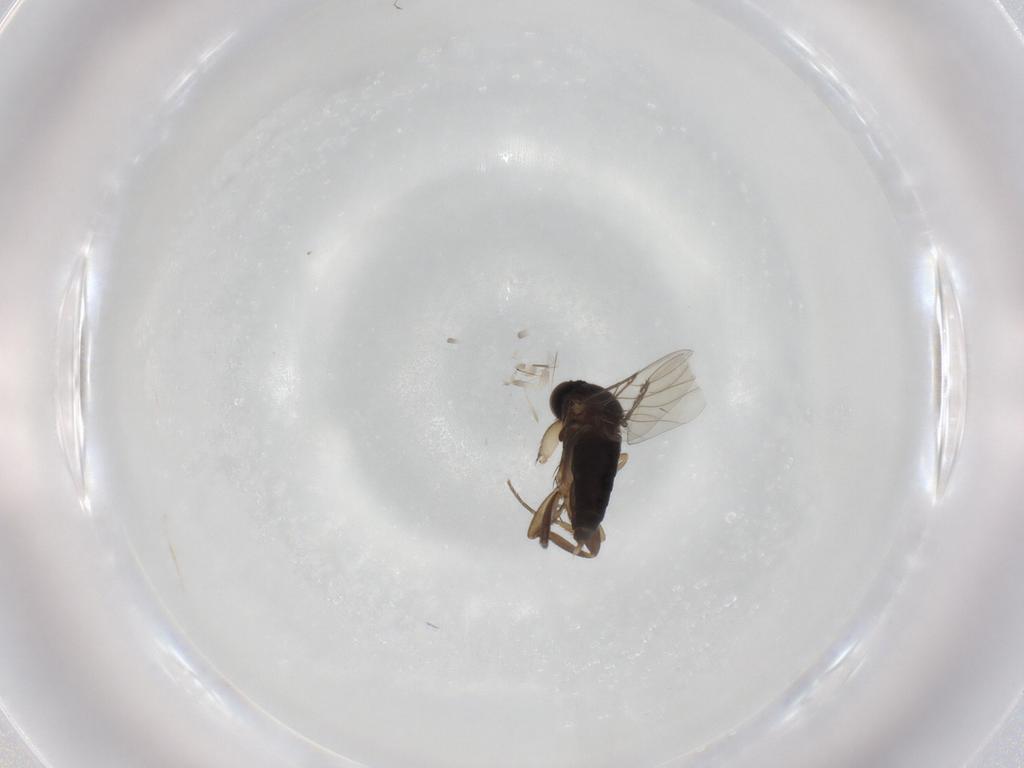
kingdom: Animalia
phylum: Arthropoda
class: Insecta
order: Diptera
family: Phoridae
